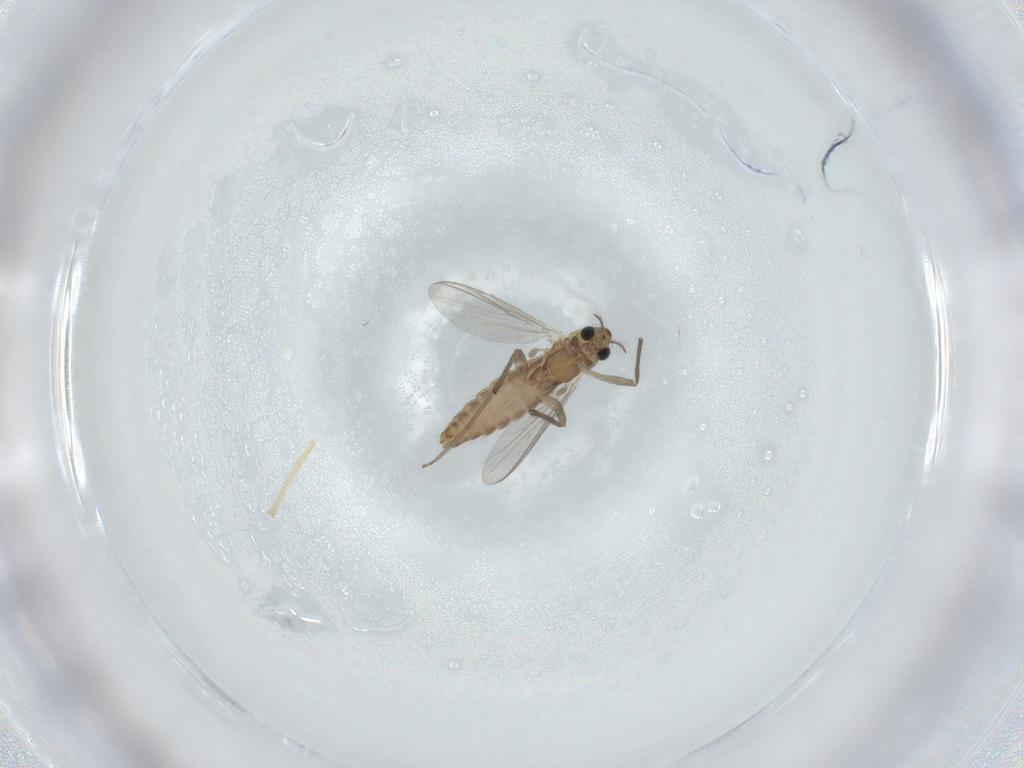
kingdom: Animalia
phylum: Arthropoda
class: Insecta
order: Diptera
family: Chironomidae
